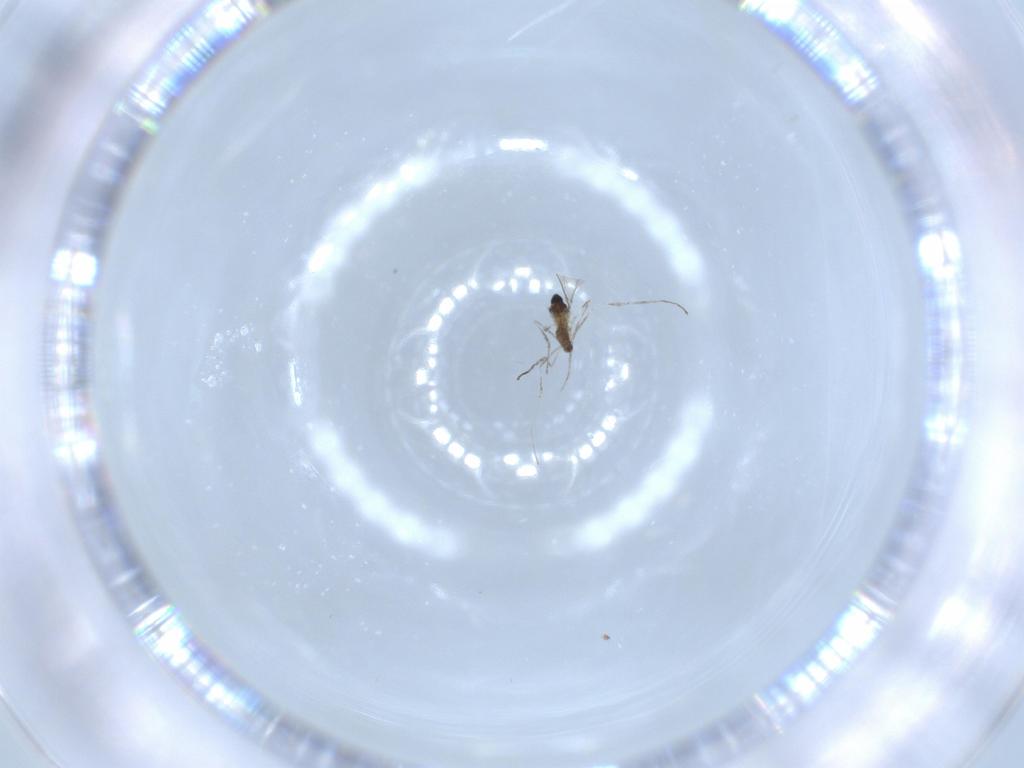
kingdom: Animalia
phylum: Arthropoda
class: Insecta
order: Diptera
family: Cecidomyiidae
